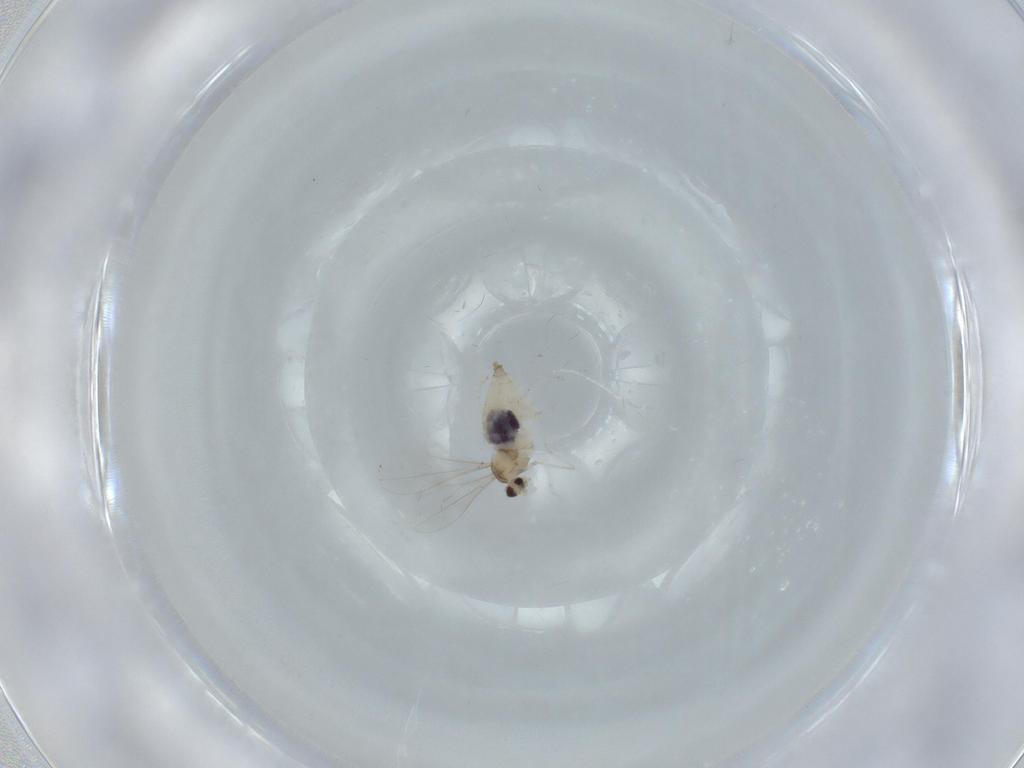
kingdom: Animalia
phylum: Arthropoda
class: Insecta
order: Diptera
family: Cecidomyiidae
